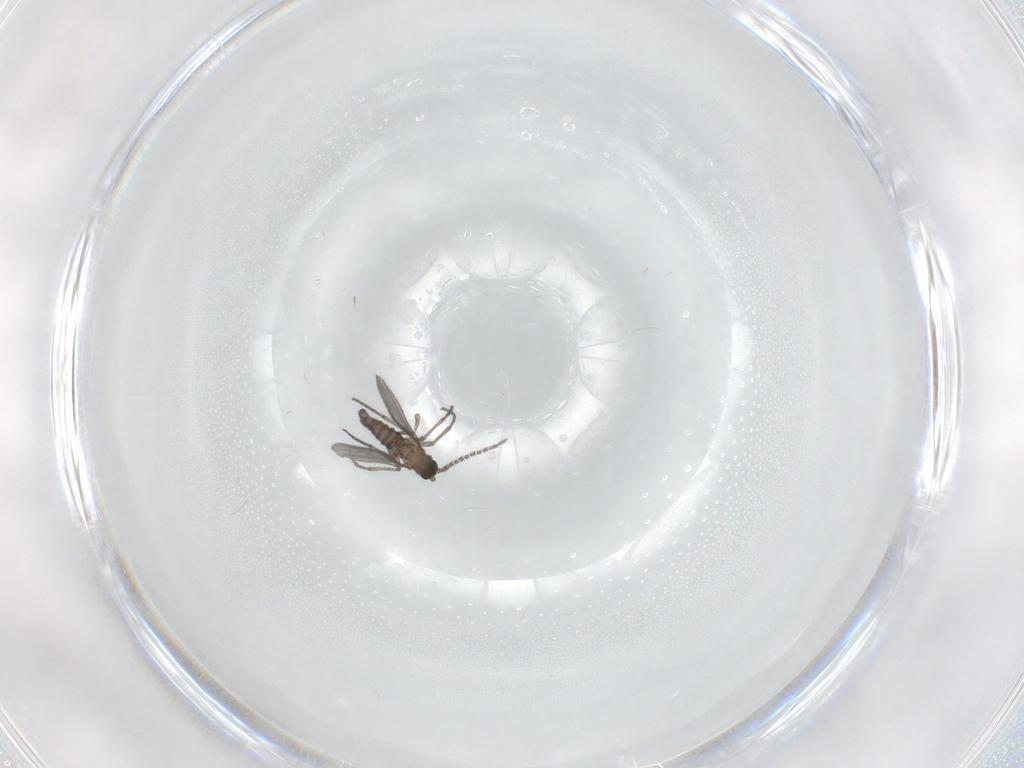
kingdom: Animalia
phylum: Arthropoda
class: Insecta
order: Diptera
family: Sciaridae
